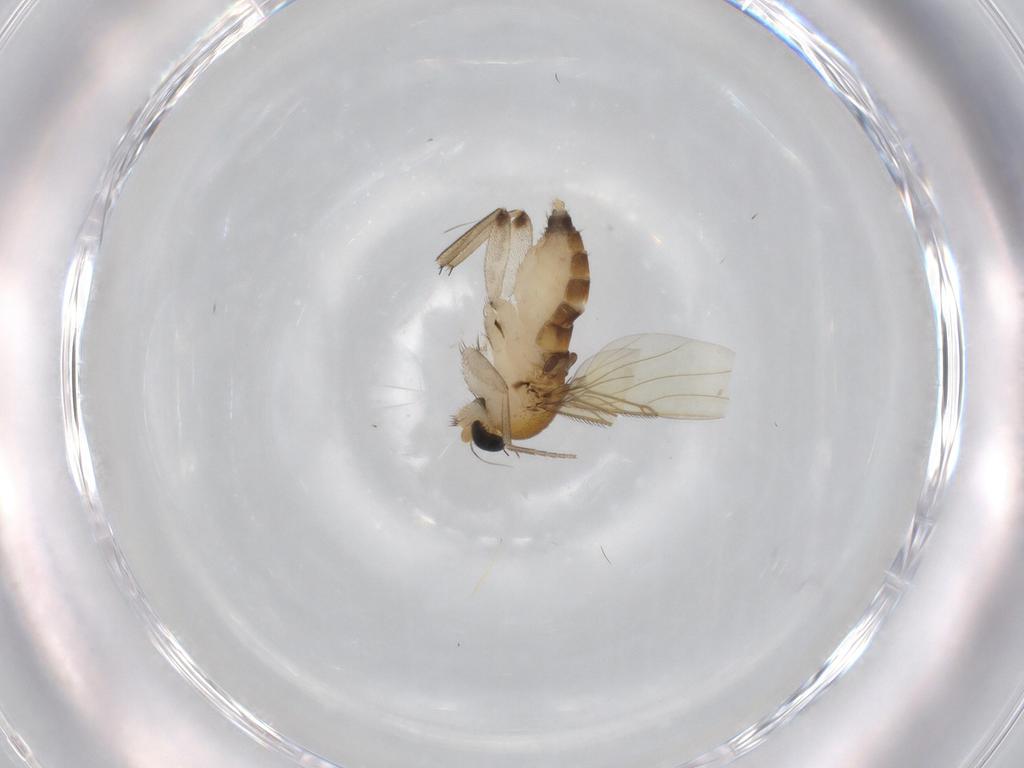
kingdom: Animalia
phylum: Arthropoda
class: Insecta
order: Diptera
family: Phoridae
